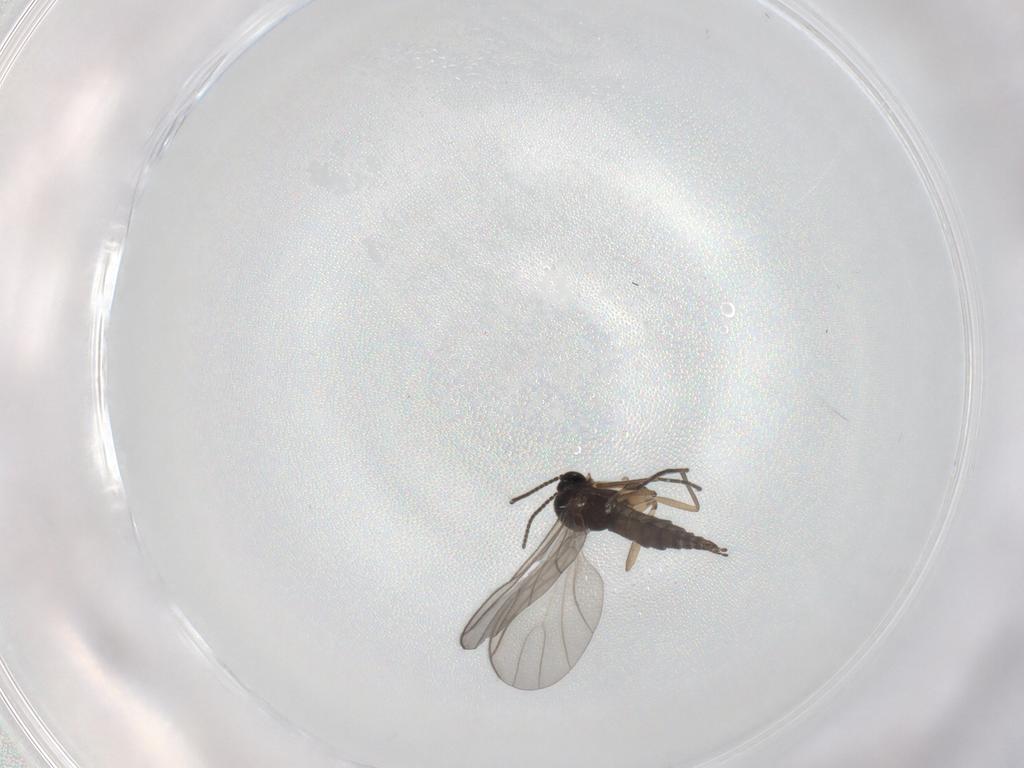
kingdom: Animalia
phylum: Arthropoda
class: Insecta
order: Diptera
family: Sciaridae
